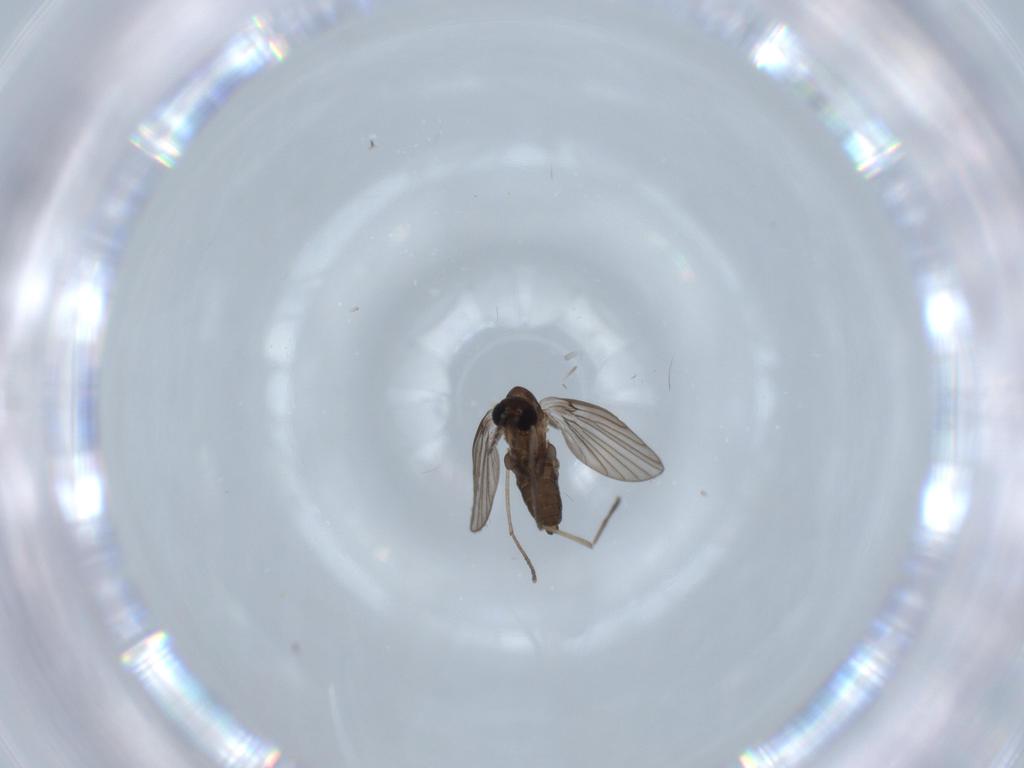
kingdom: Animalia
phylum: Arthropoda
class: Insecta
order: Diptera
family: Psychodidae
